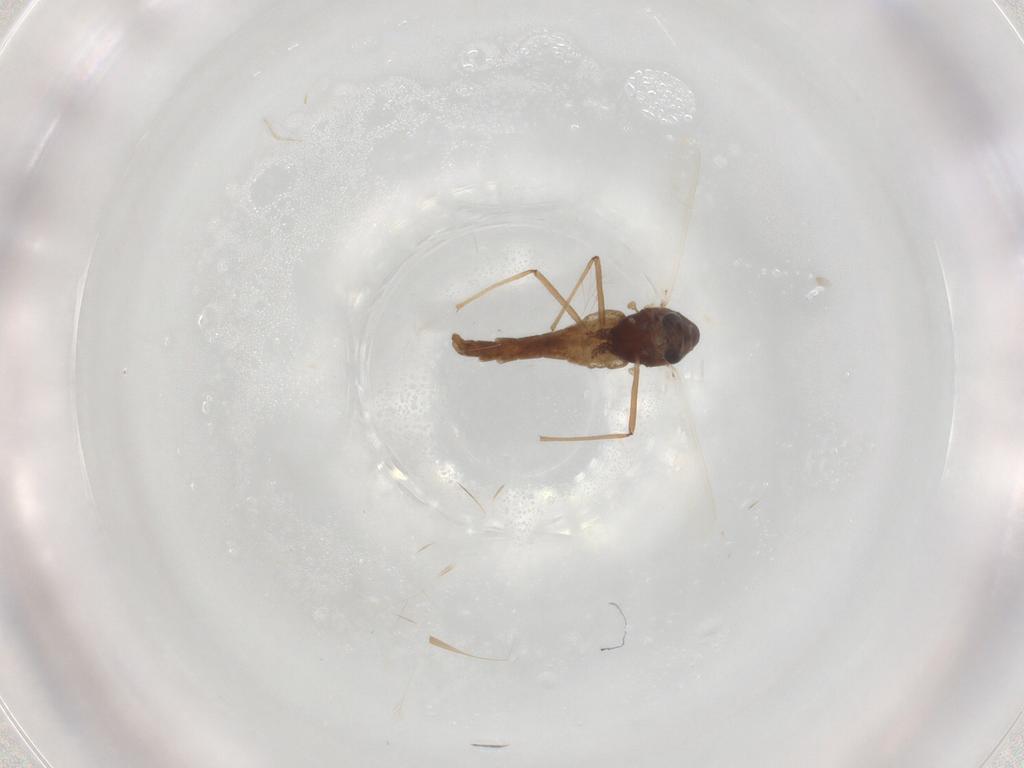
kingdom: Animalia
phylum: Arthropoda
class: Insecta
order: Diptera
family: Chironomidae
